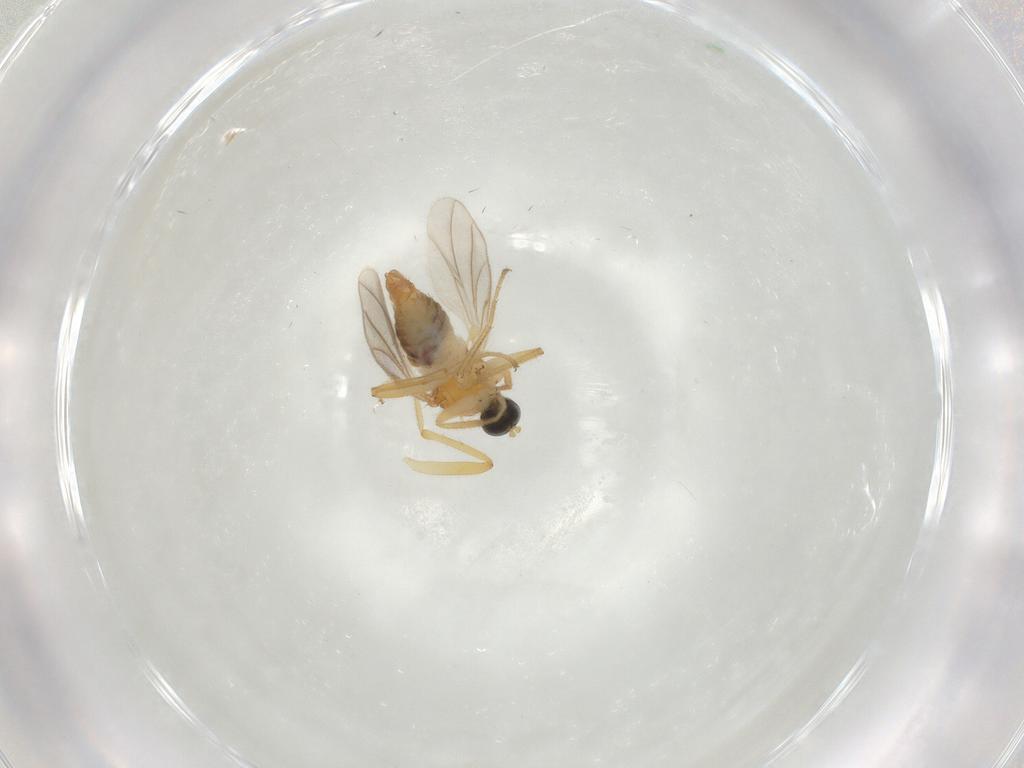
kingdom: Animalia
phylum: Arthropoda
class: Insecta
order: Diptera
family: Hybotidae
